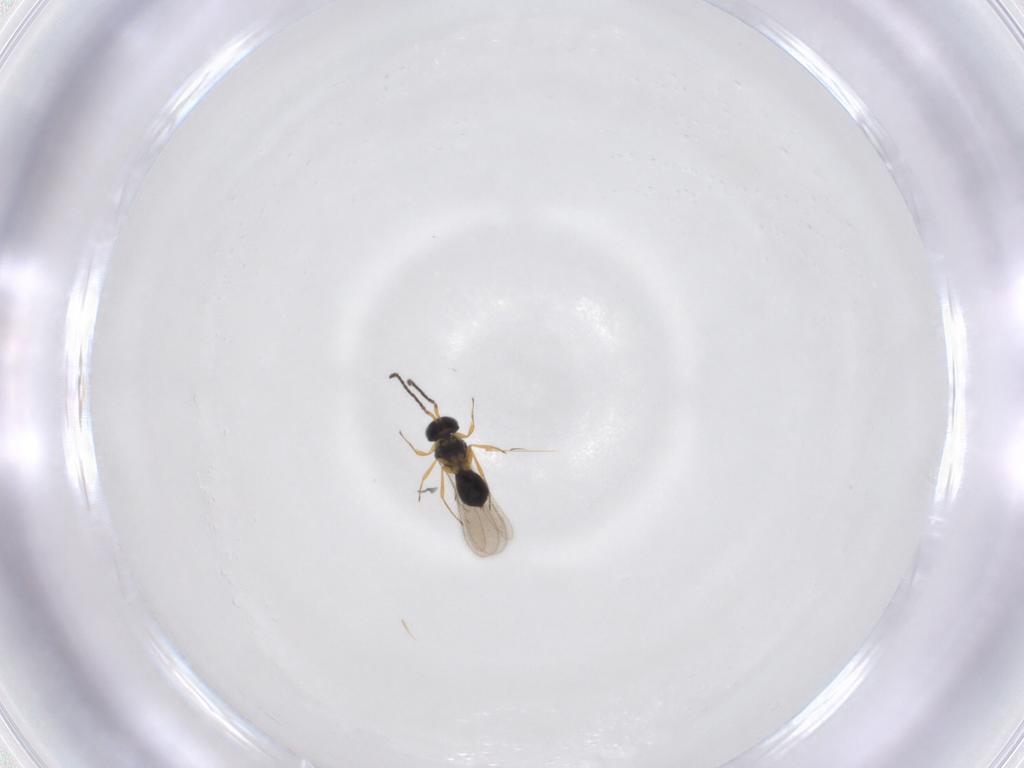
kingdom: Animalia
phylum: Arthropoda
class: Insecta
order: Hymenoptera
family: Scelionidae
